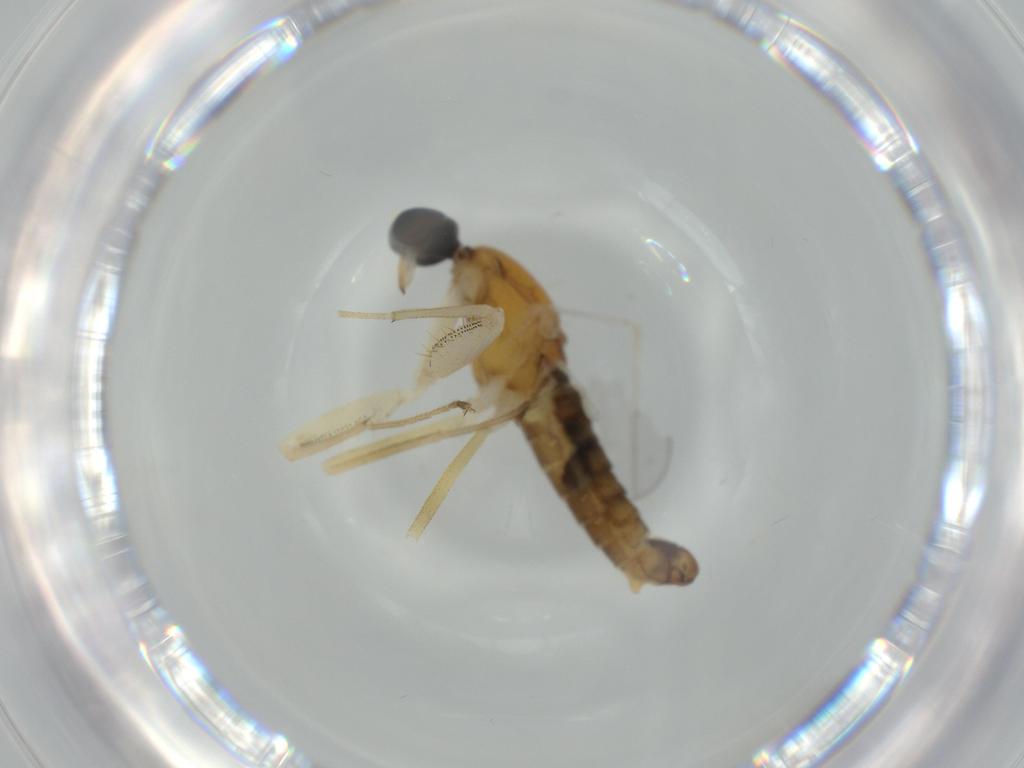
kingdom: Animalia
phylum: Arthropoda
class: Insecta
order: Diptera
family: Empididae
